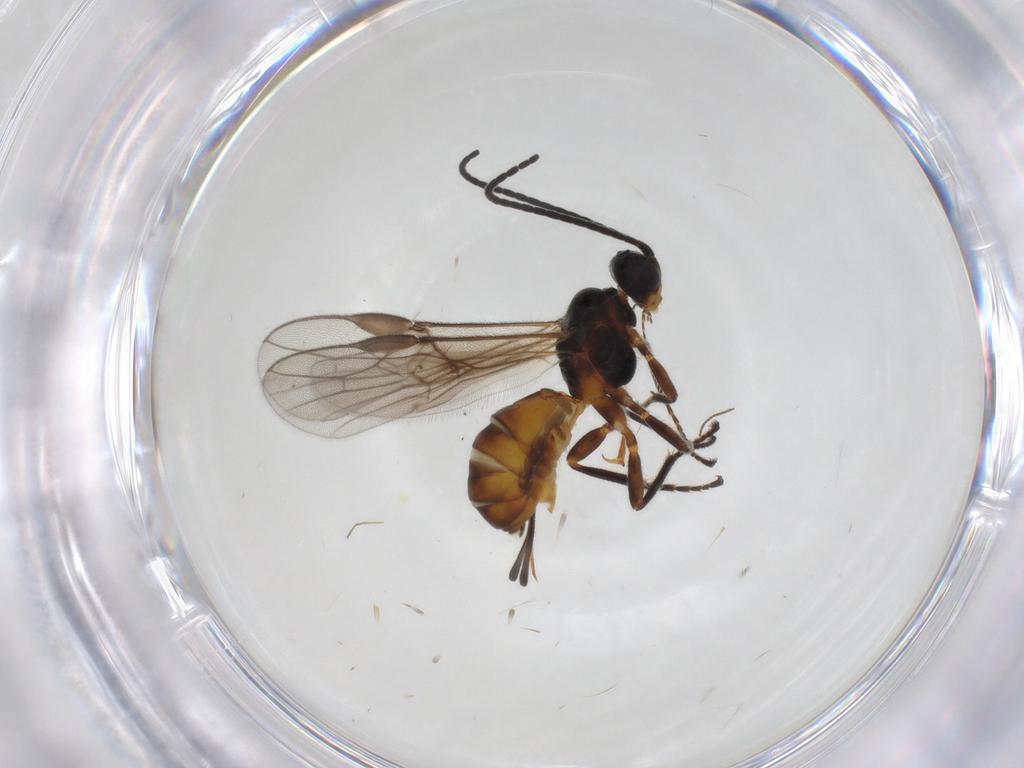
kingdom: Animalia
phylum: Arthropoda
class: Insecta
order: Hymenoptera
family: Braconidae
